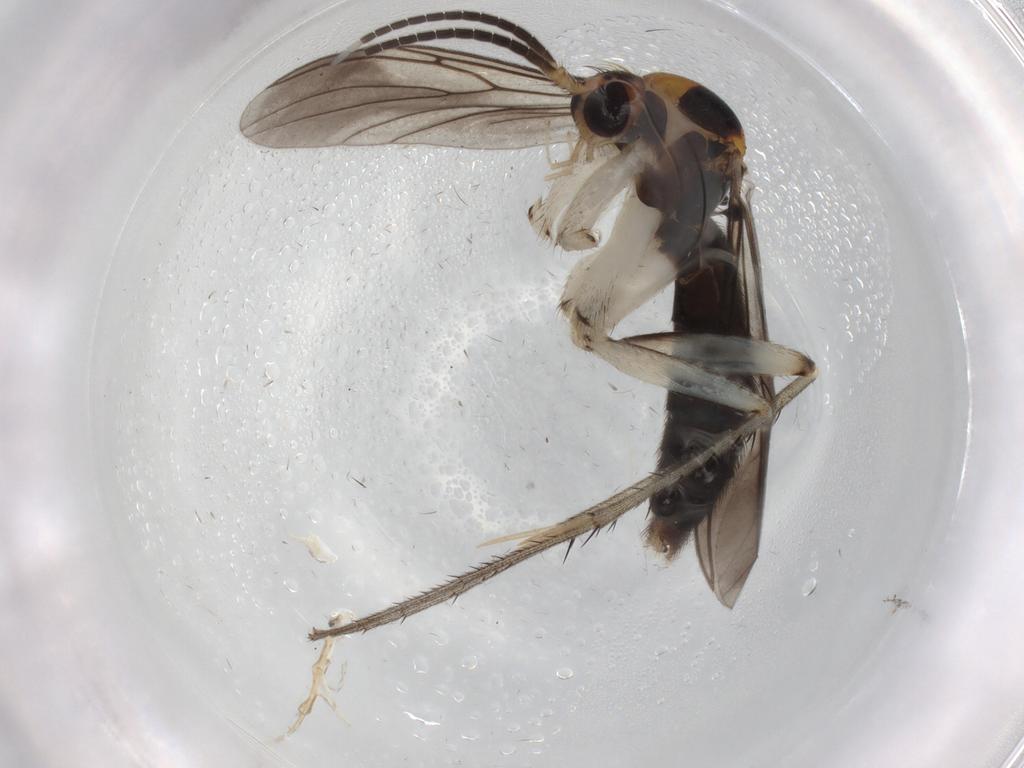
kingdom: Animalia
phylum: Arthropoda
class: Insecta
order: Diptera
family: Mycetophilidae
